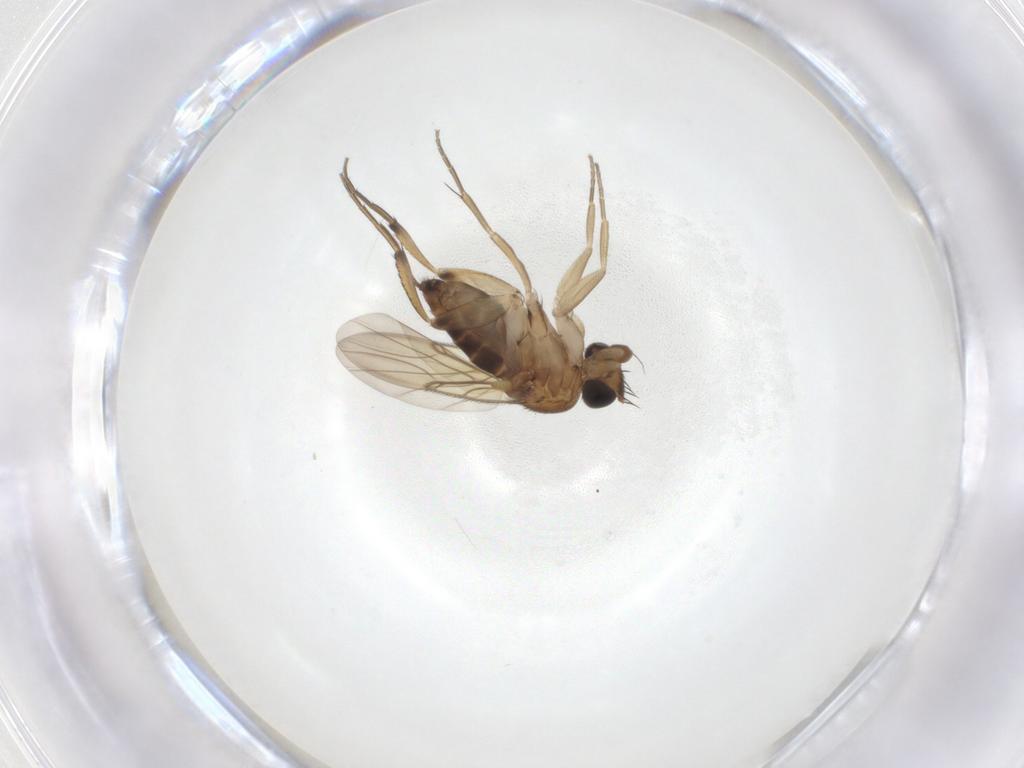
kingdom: Animalia
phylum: Arthropoda
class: Insecta
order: Diptera
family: Phoridae
